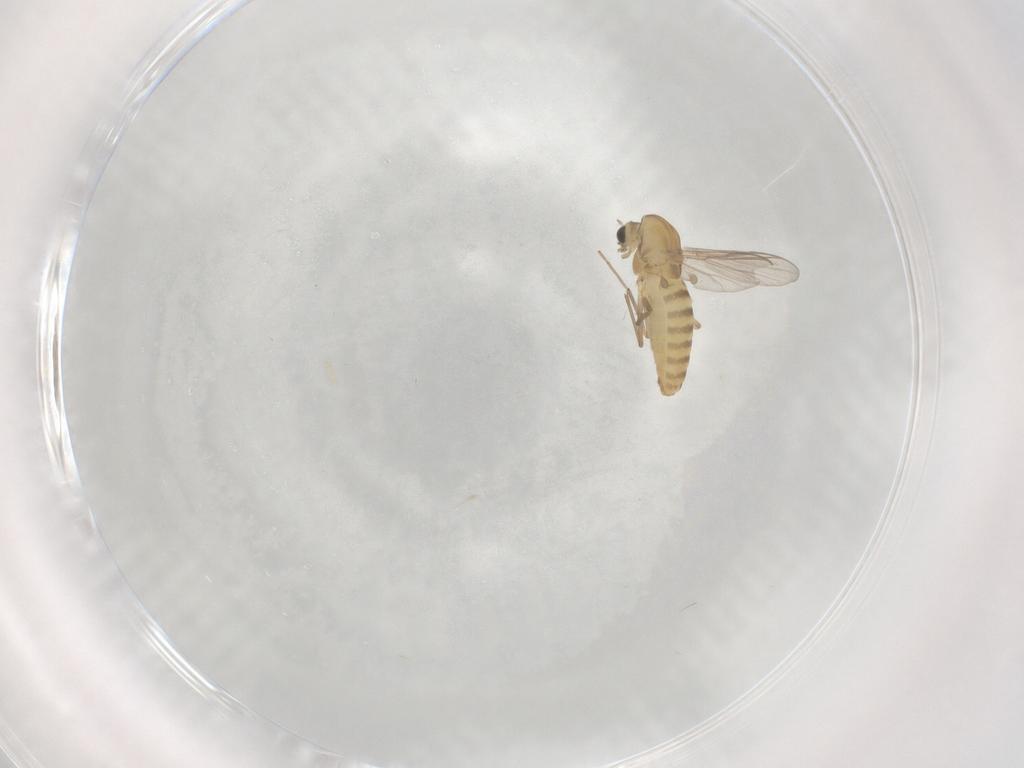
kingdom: Animalia
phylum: Arthropoda
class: Insecta
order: Diptera
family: Chironomidae
